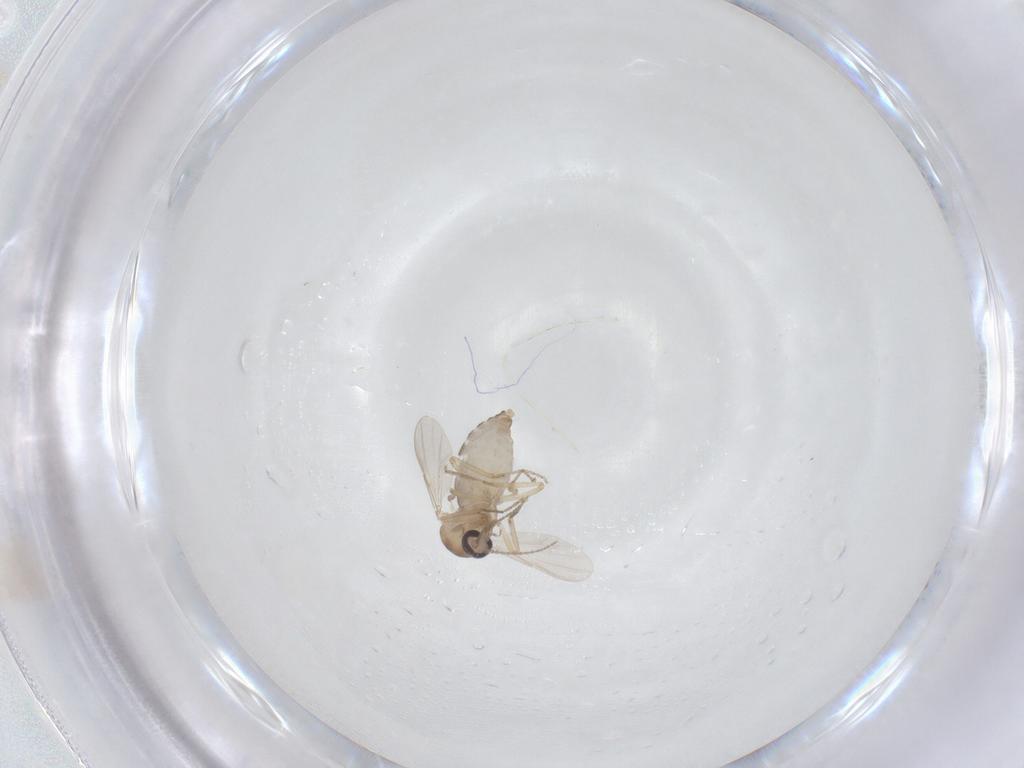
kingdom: Animalia
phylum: Arthropoda
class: Insecta
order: Diptera
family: Ceratopogonidae
